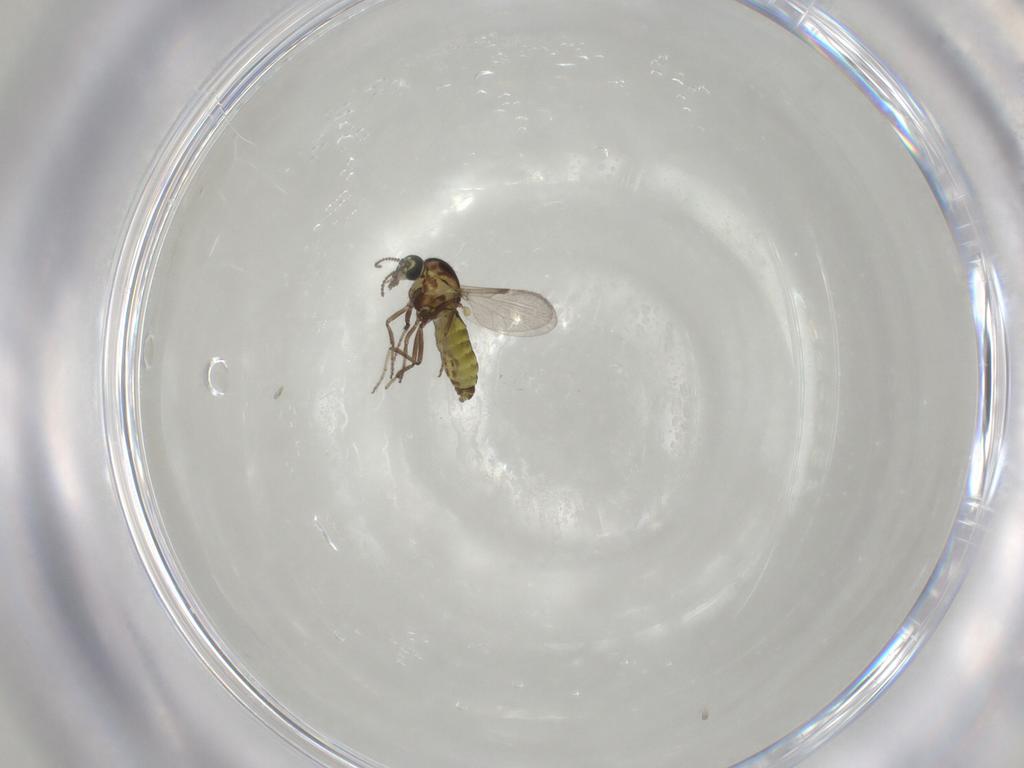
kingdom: Animalia
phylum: Arthropoda
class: Insecta
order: Diptera
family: Ceratopogonidae
